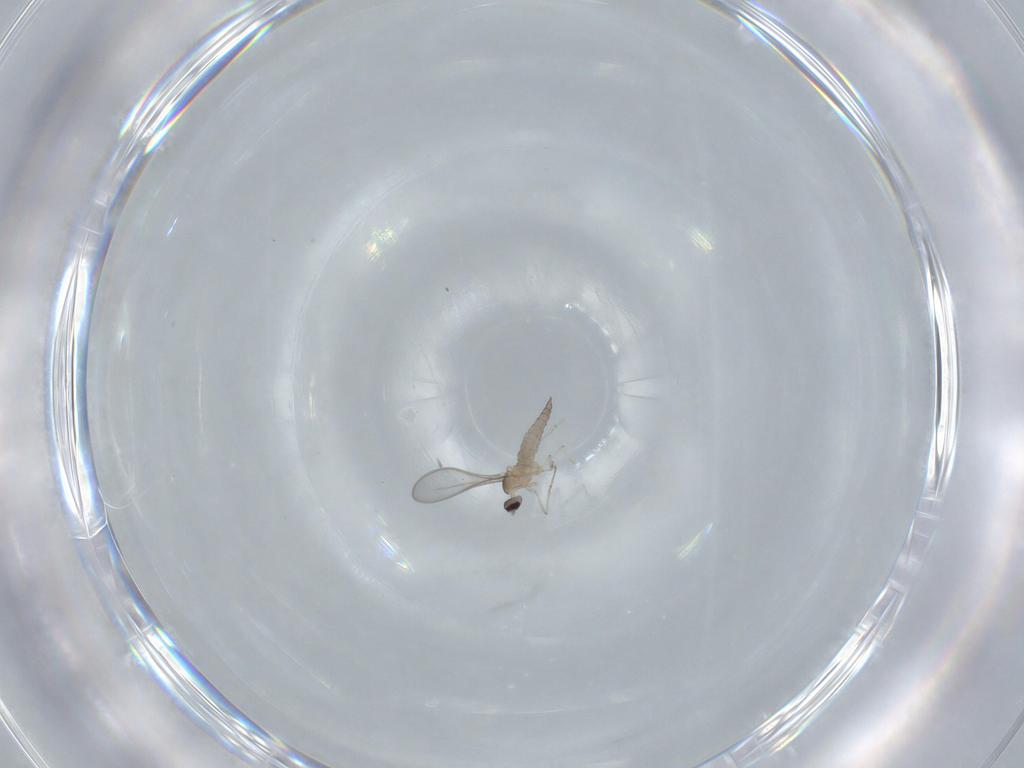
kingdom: Animalia
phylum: Arthropoda
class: Insecta
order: Diptera
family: Cecidomyiidae
